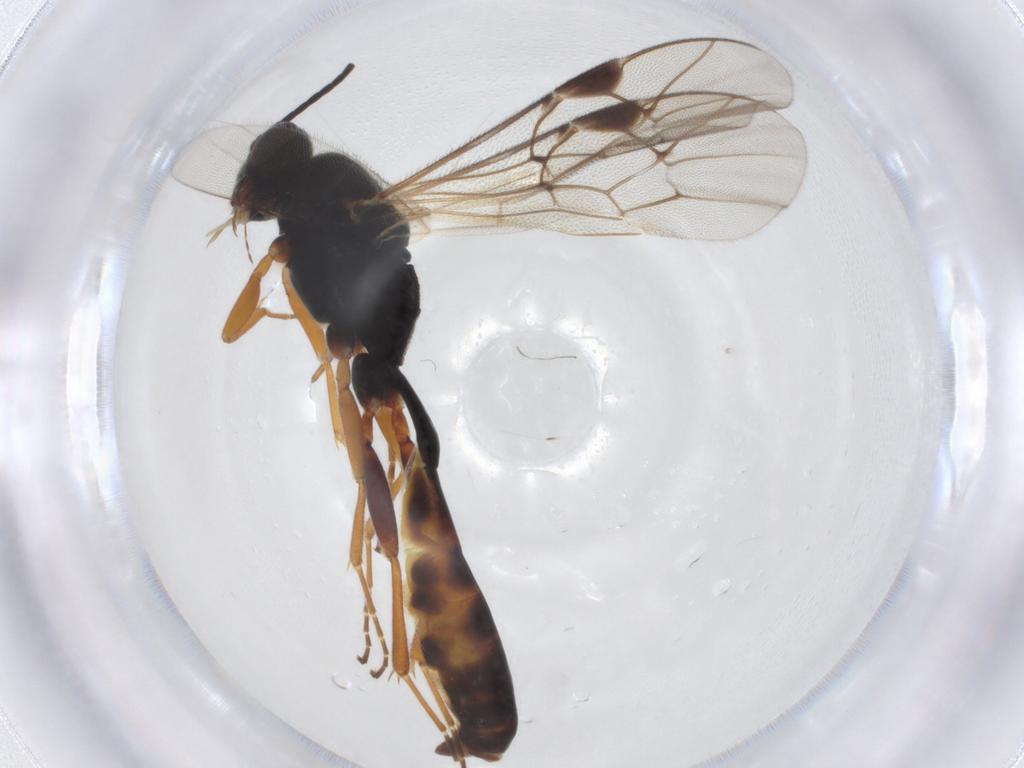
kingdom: Animalia
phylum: Arthropoda
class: Insecta
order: Hymenoptera
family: Ichneumonidae
